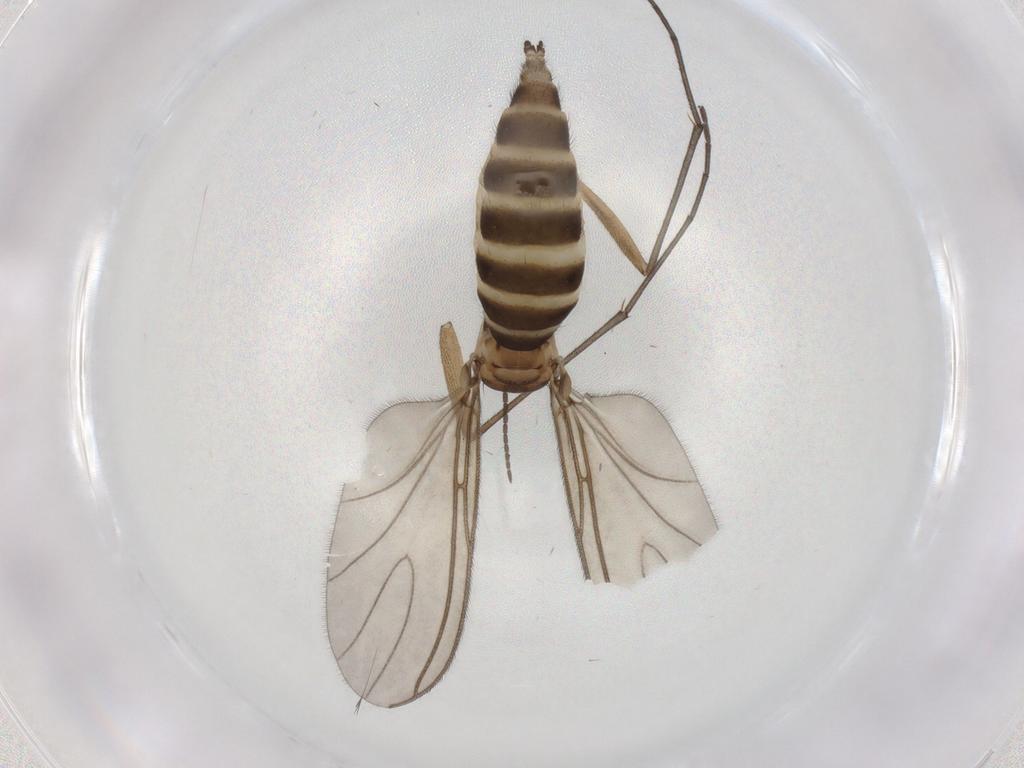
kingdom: Animalia
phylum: Arthropoda
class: Insecta
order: Diptera
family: Sciaridae
